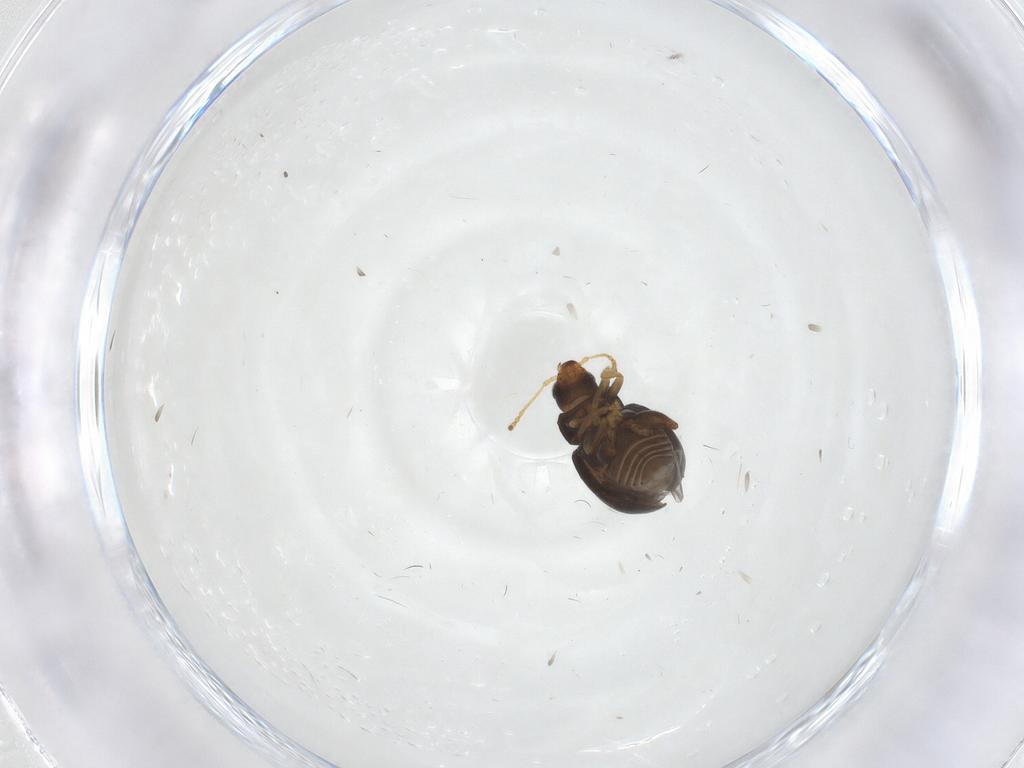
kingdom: Animalia
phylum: Arthropoda
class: Insecta
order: Coleoptera
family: Chrysomelidae
